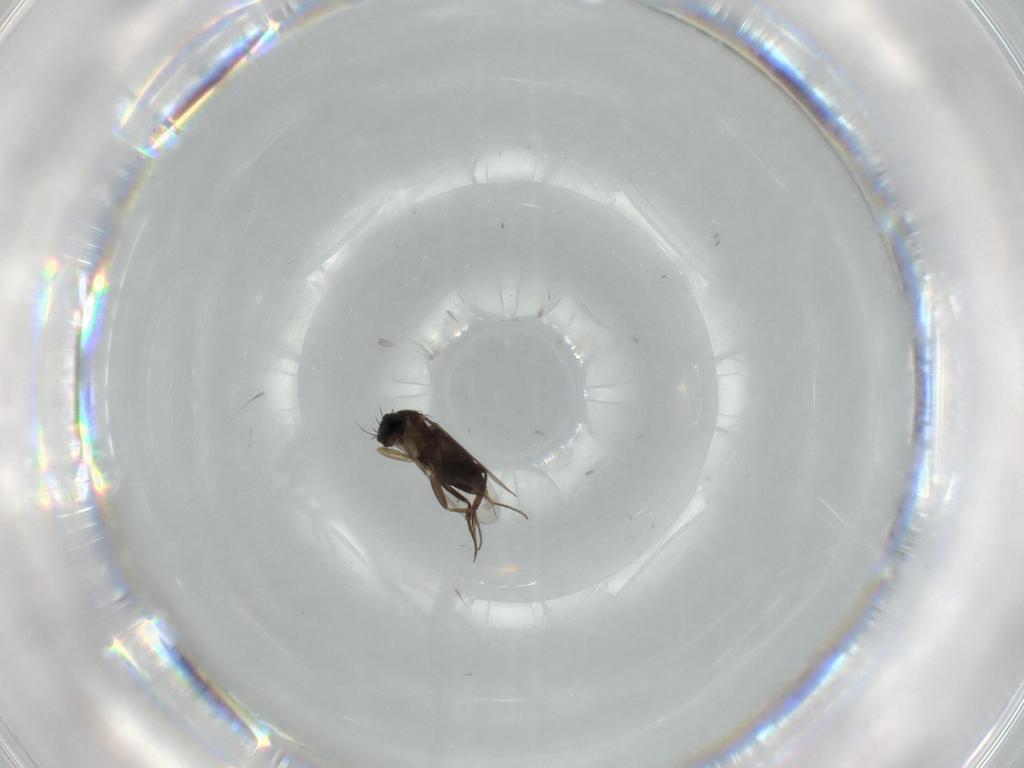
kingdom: Animalia
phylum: Arthropoda
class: Insecta
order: Diptera
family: Phoridae
